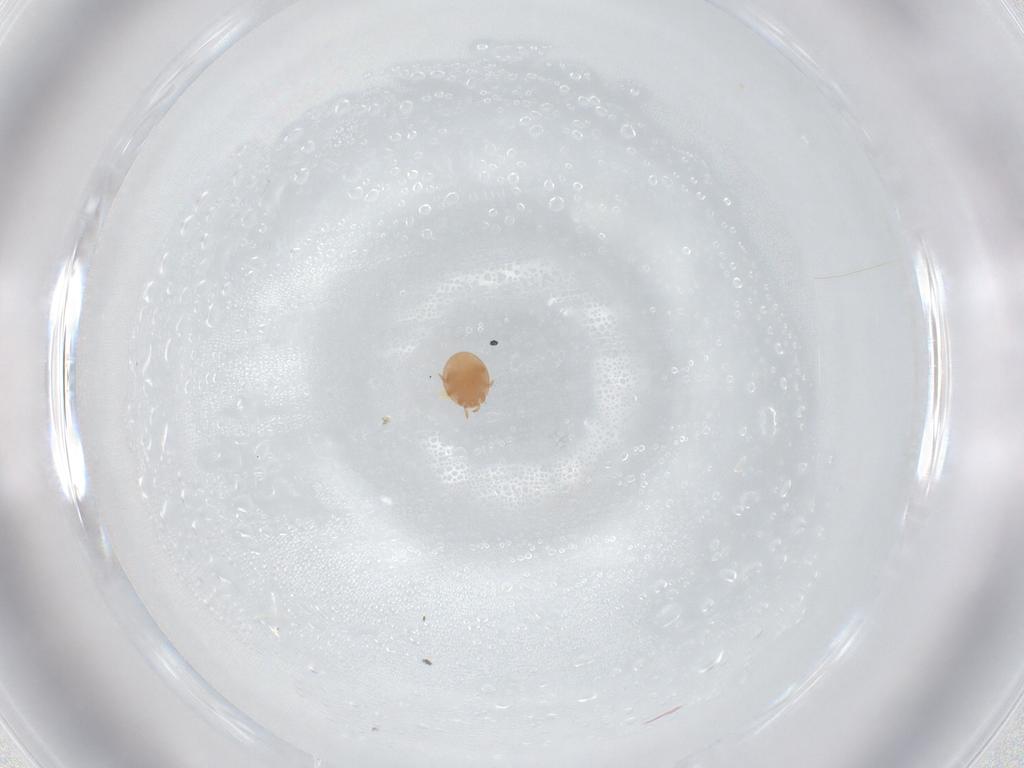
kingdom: Animalia
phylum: Arthropoda
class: Arachnida
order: Mesostigmata
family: Trematuridae
